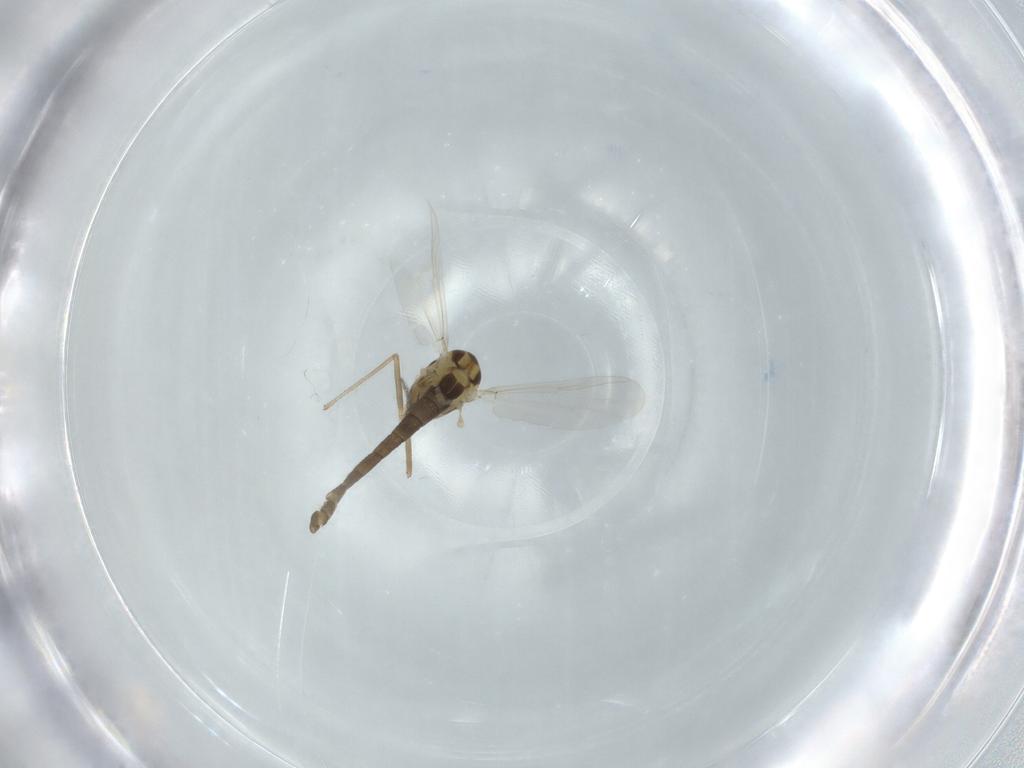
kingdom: Animalia
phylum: Arthropoda
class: Insecta
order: Diptera
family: Chironomidae
